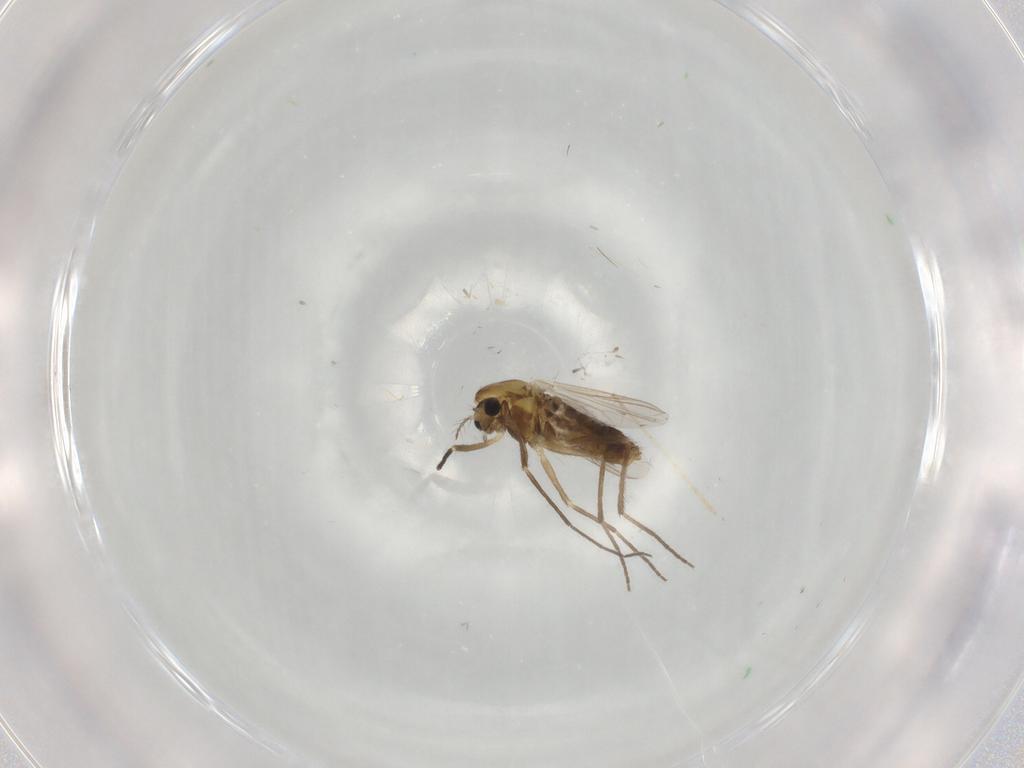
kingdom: Animalia
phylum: Arthropoda
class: Insecta
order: Diptera
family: Chironomidae
